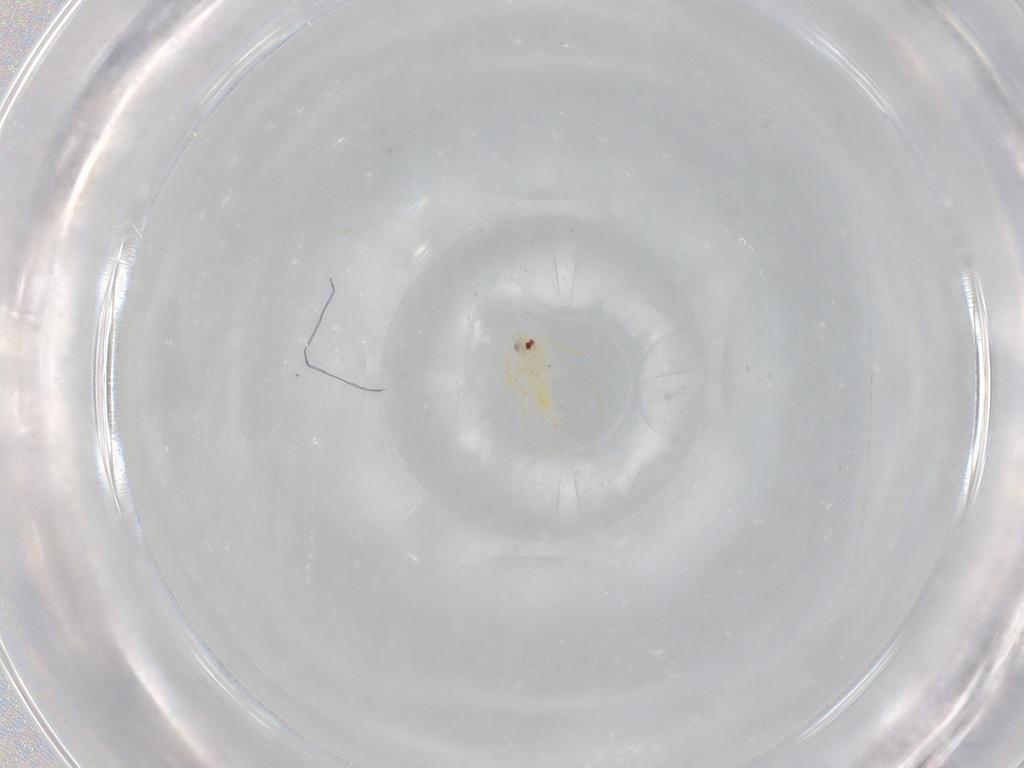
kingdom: Animalia
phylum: Arthropoda
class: Insecta
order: Hemiptera
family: Aleyrodidae
